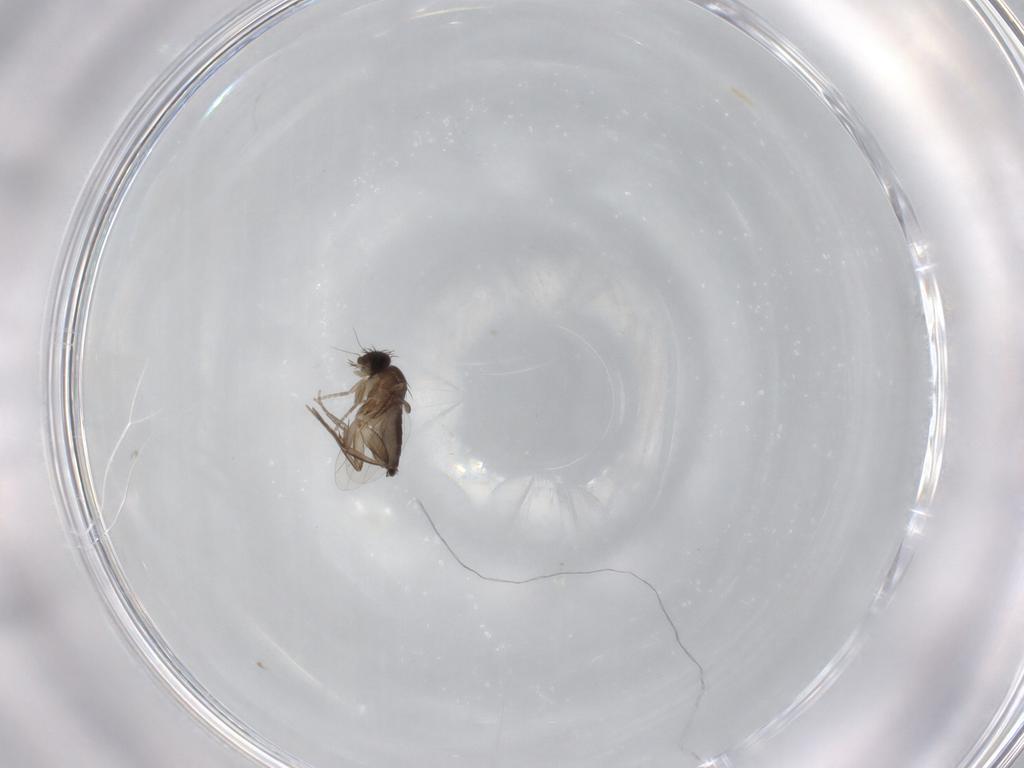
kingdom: Animalia
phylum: Arthropoda
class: Insecta
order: Diptera
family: Phoridae
